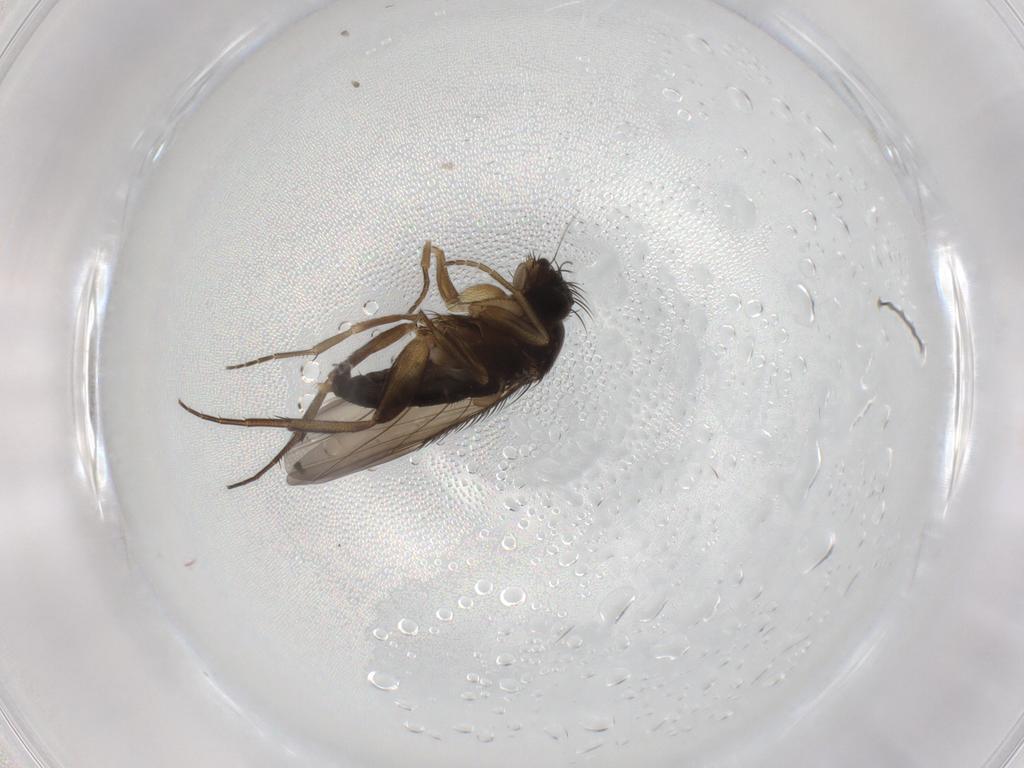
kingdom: Animalia
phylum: Arthropoda
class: Insecta
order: Diptera
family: Phoridae
